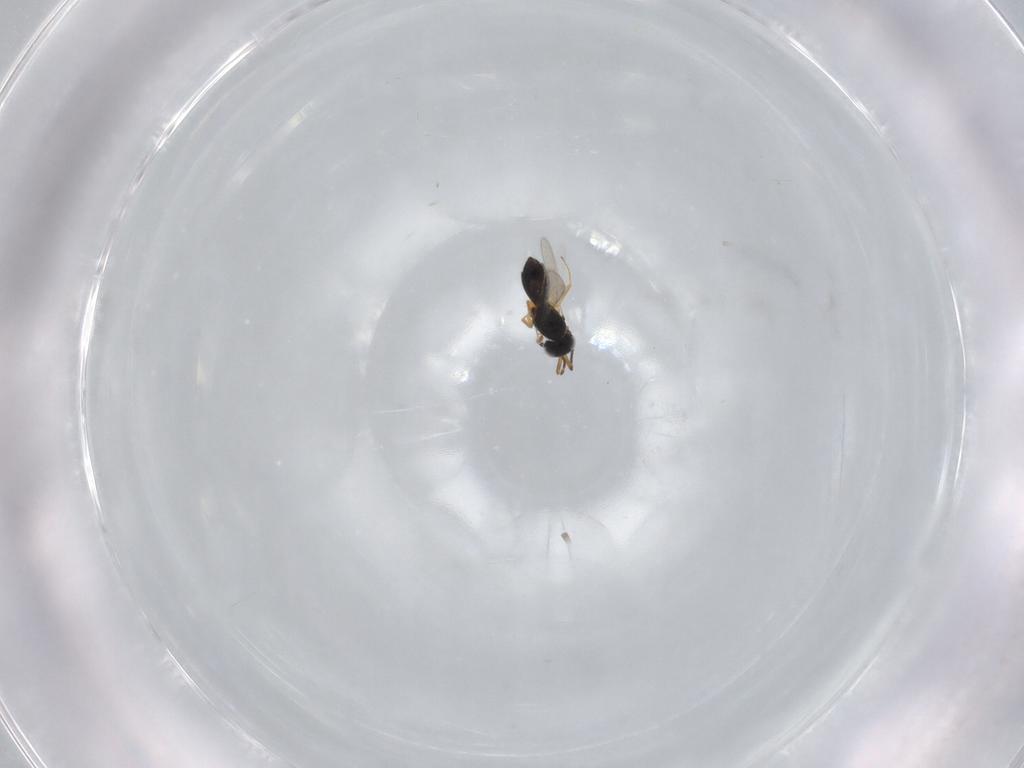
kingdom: Animalia
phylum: Arthropoda
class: Insecta
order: Hymenoptera
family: Scelionidae
